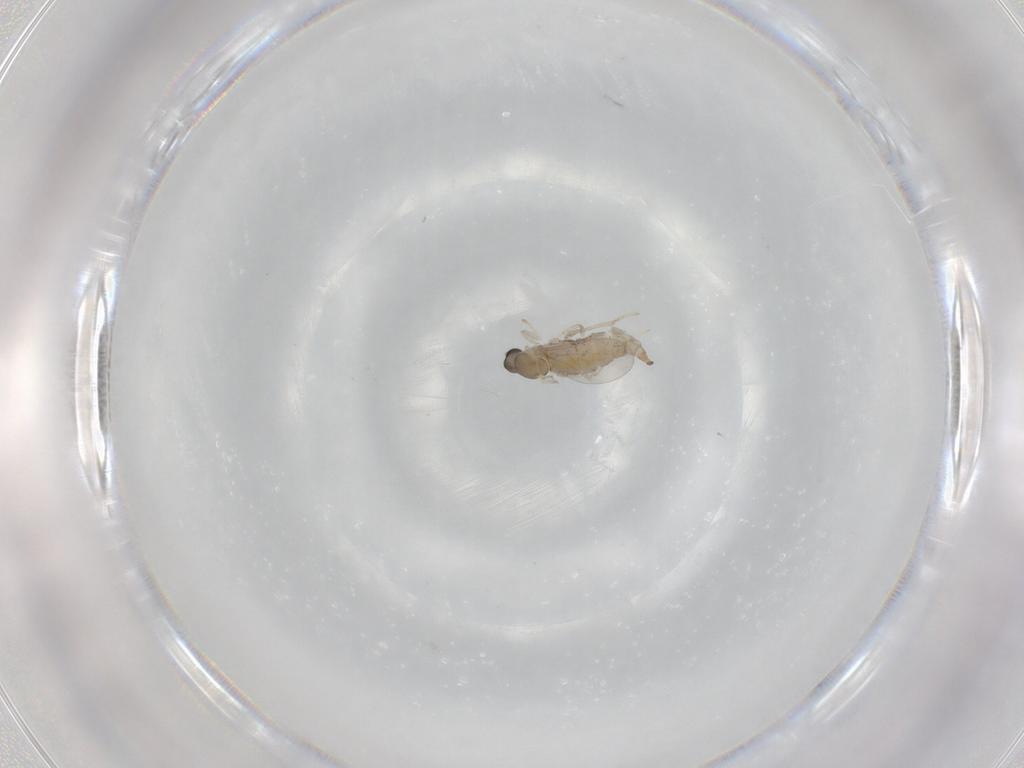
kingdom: Animalia
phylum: Arthropoda
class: Insecta
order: Diptera
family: Cecidomyiidae
